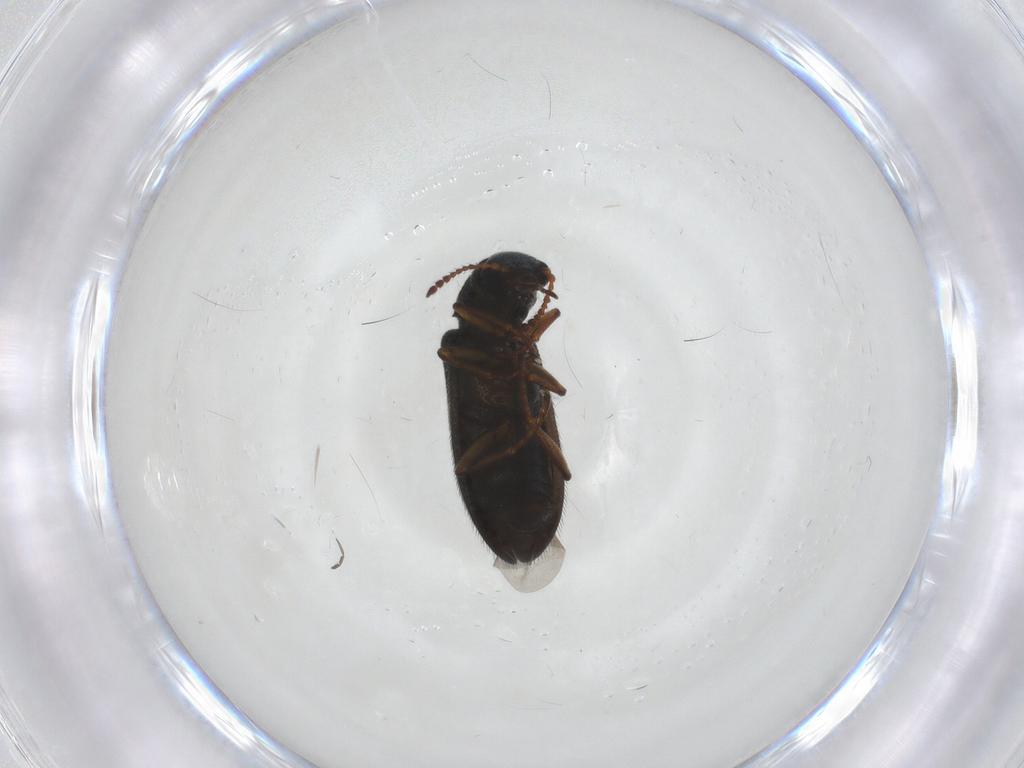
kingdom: Animalia
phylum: Arthropoda
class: Insecta
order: Coleoptera
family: Melyridae
